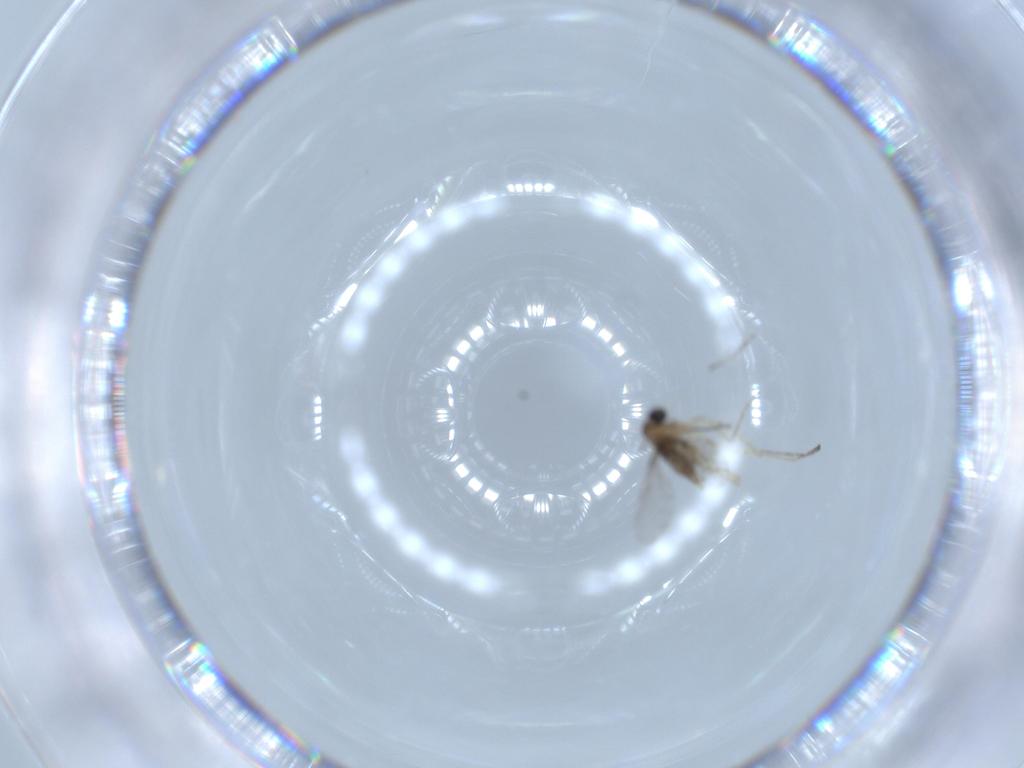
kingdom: Animalia
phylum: Arthropoda
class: Insecta
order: Diptera
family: Cecidomyiidae
